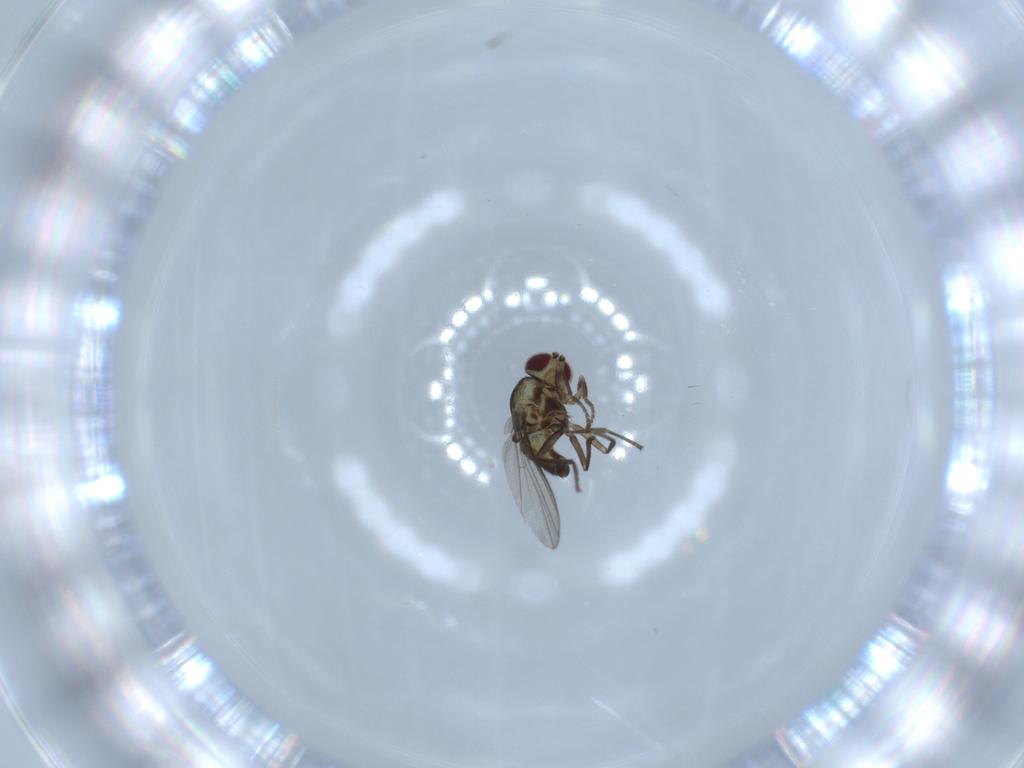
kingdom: Animalia
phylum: Arthropoda
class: Insecta
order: Diptera
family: Agromyzidae
